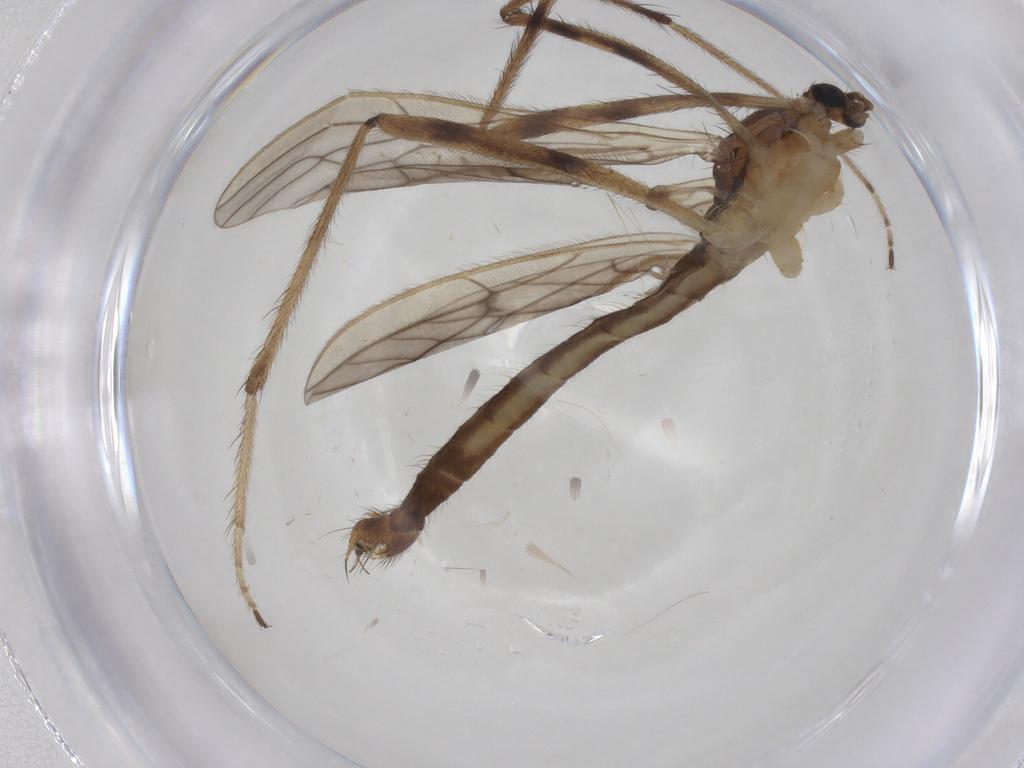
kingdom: Animalia
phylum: Arthropoda
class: Insecta
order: Diptera
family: Limoniidae
